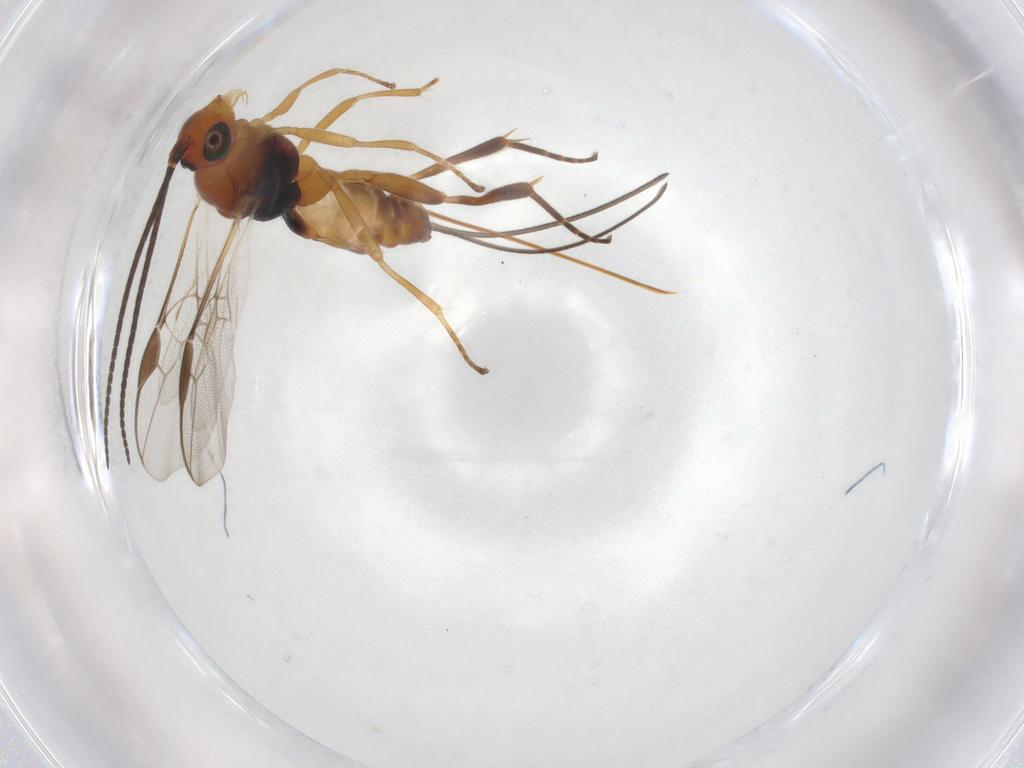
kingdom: Animalia
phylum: Arthropoda
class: Insecta
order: Hymenoptera
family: Braconidae
